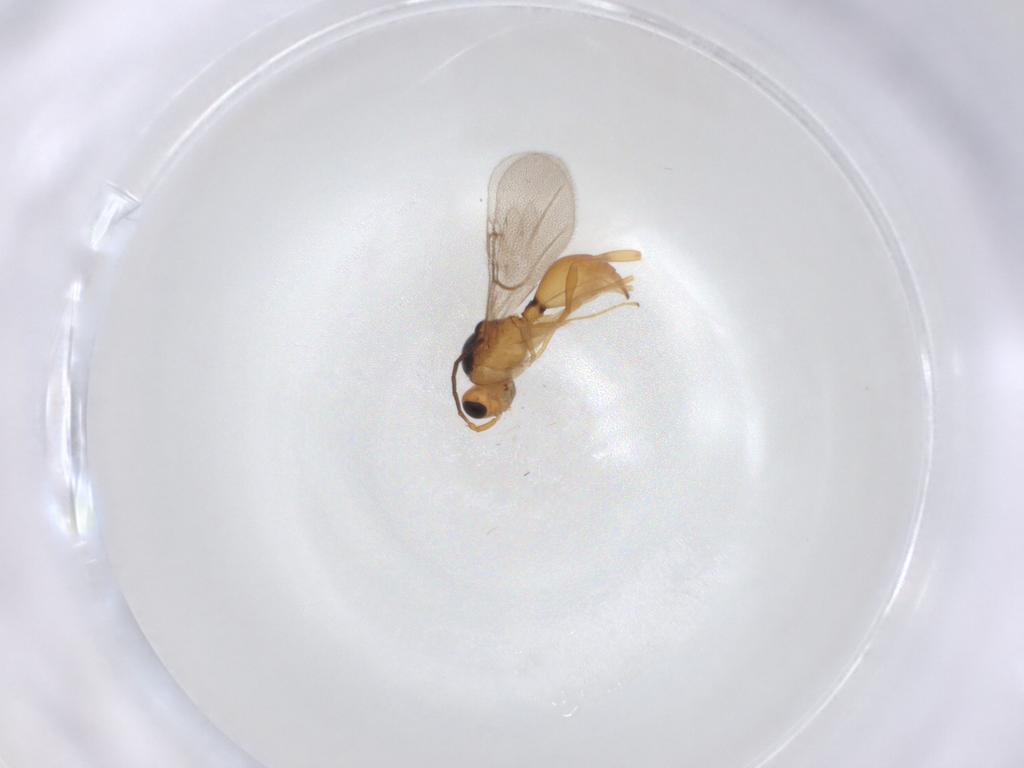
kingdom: Animalia
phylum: Arthropoda
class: Insecta
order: Hymenoptera
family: Diapriidae
